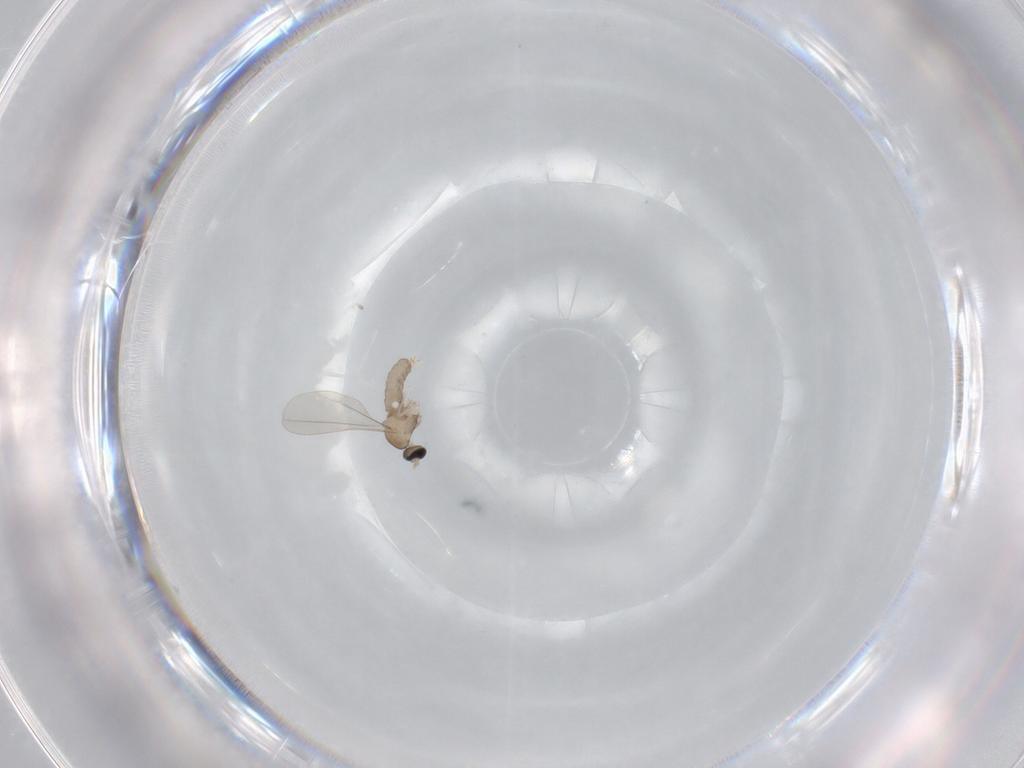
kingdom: Animalia
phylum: Arthropoda
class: Insecta
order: Diptera
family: Cecidomyiidae
